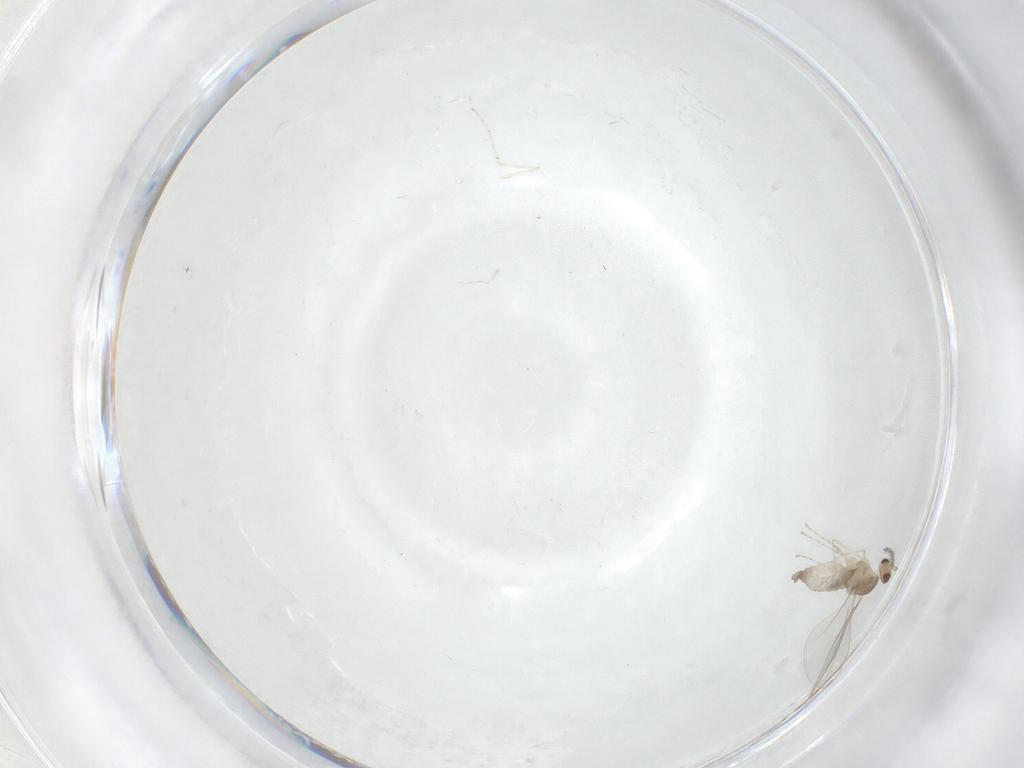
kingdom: Animalia
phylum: Arthropoda
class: Insecta
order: Diptera
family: Cecidomyiidae
